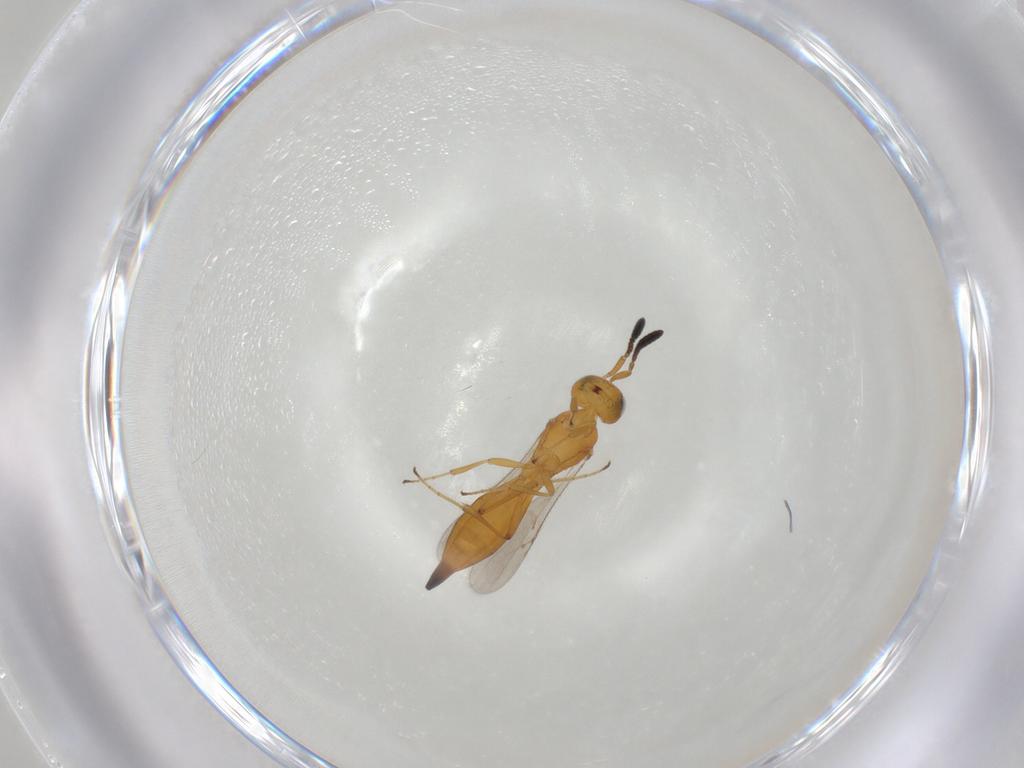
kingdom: Animalia
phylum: Arthropoda
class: Insecta
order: Hymenoptera
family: Scelionidae
